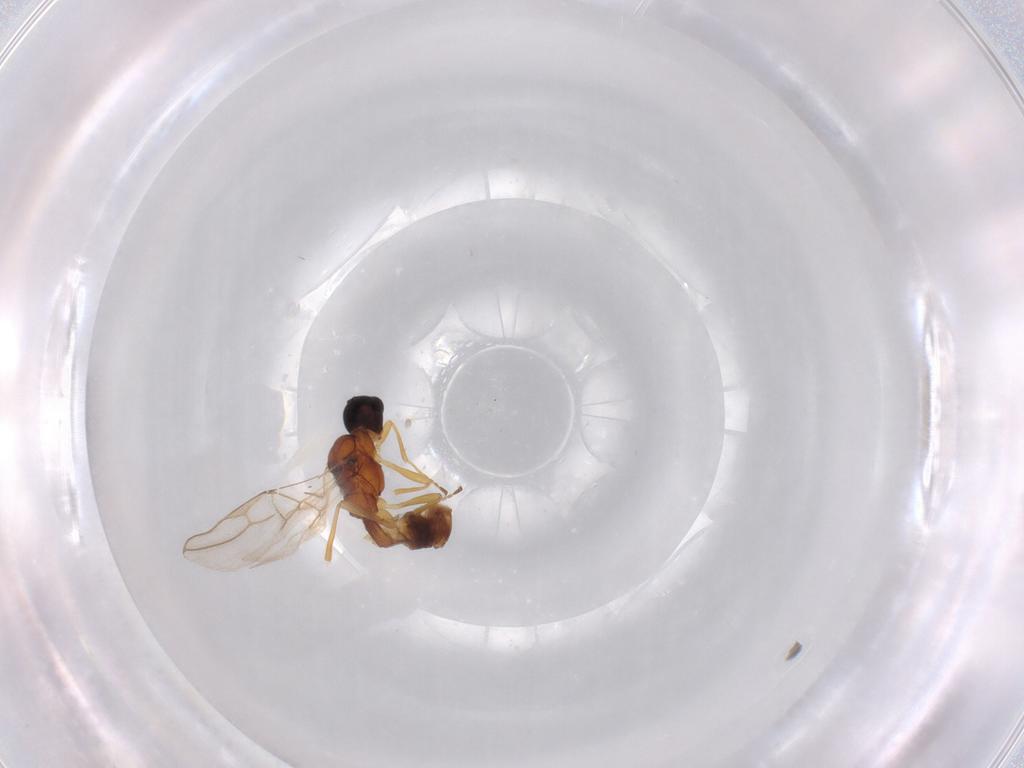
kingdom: Animalia
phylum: Arthropoda
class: Insecta
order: Hymenoptera
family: Braconidae
